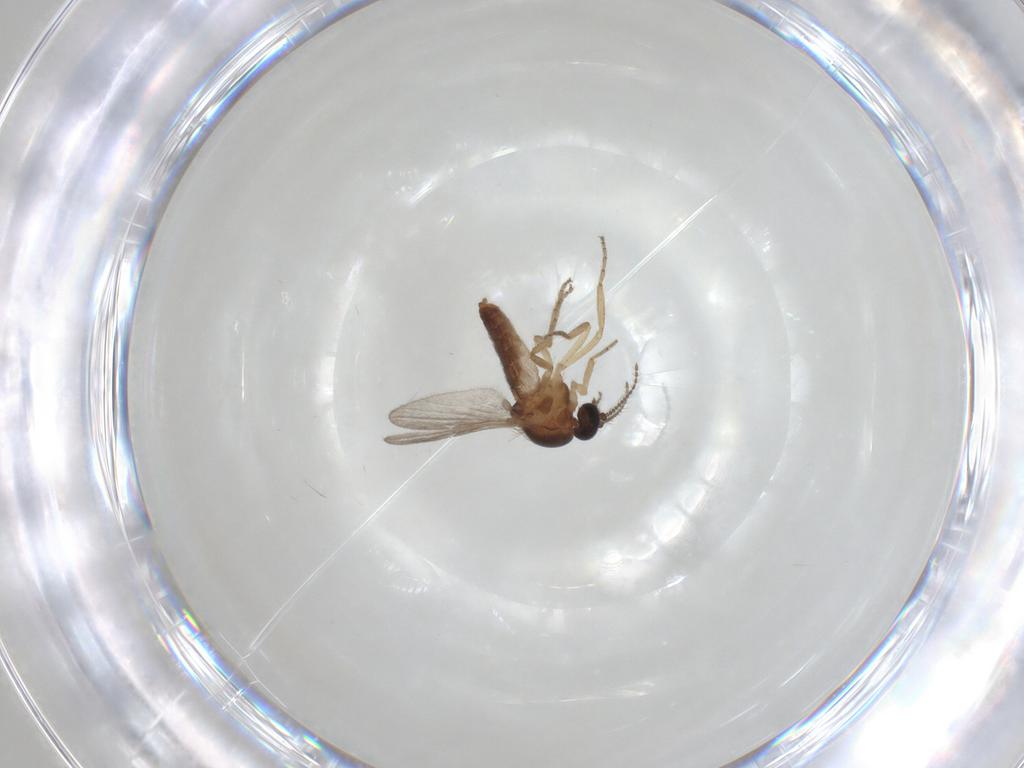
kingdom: Animalia
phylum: Arthropoda
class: Insecta
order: Diptera
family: Ceratopogonidae
